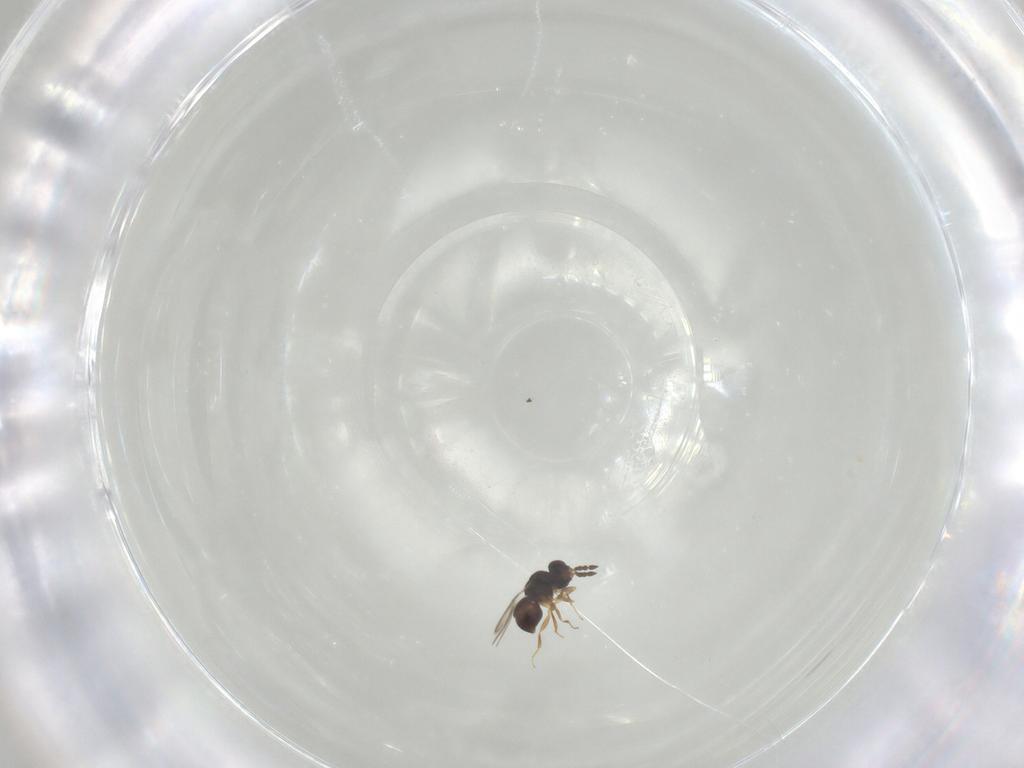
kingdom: Animalia
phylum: Arthropoda
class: Insecta
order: Hymenoptera
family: Ceraphronidae
